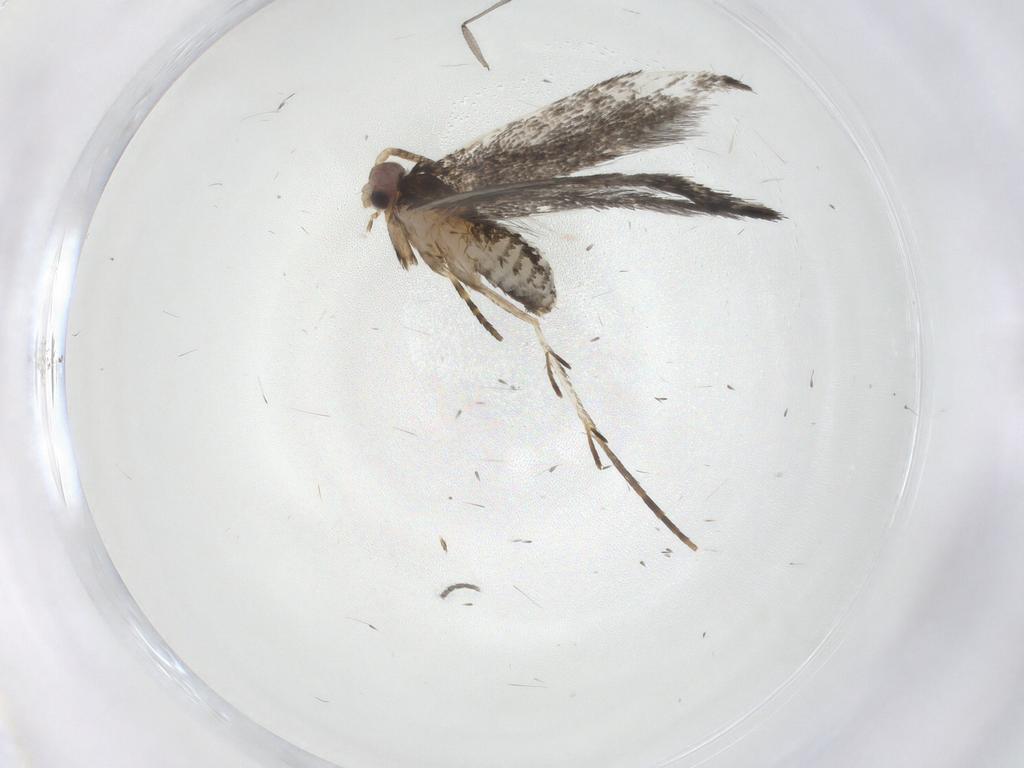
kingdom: Animalia
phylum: Arthropoda
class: Insecta
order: Lepidoptera
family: Tineidae
